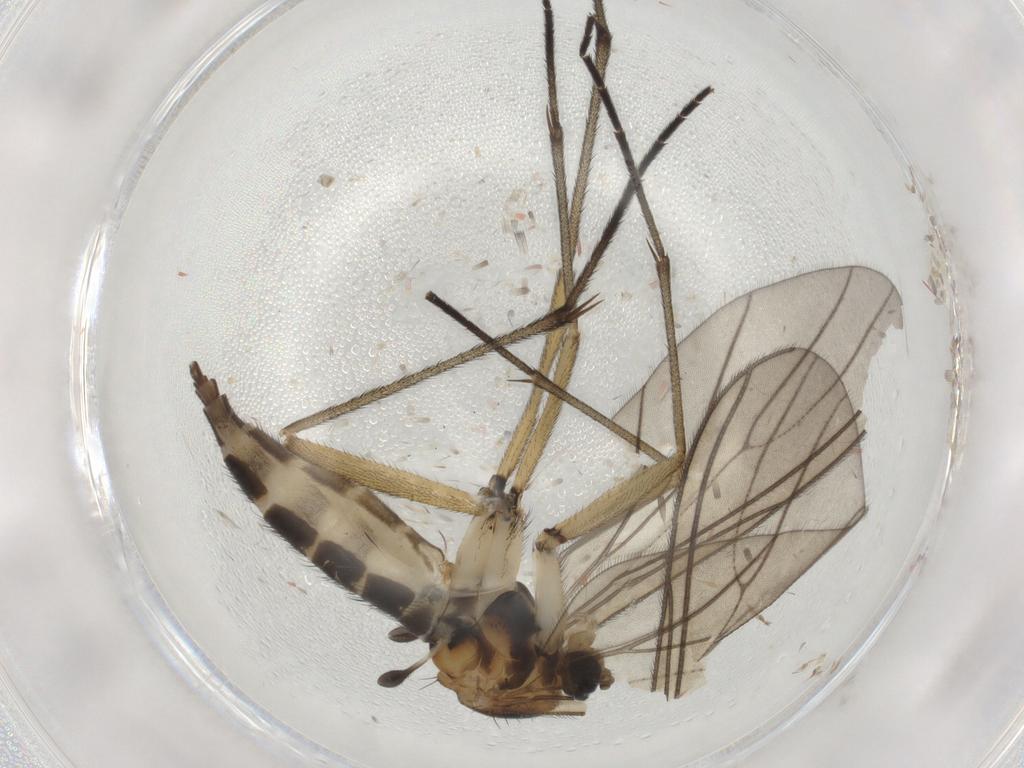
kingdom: Animalia
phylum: Arthropoda
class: Insecta
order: Diptera
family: Sciaridae
